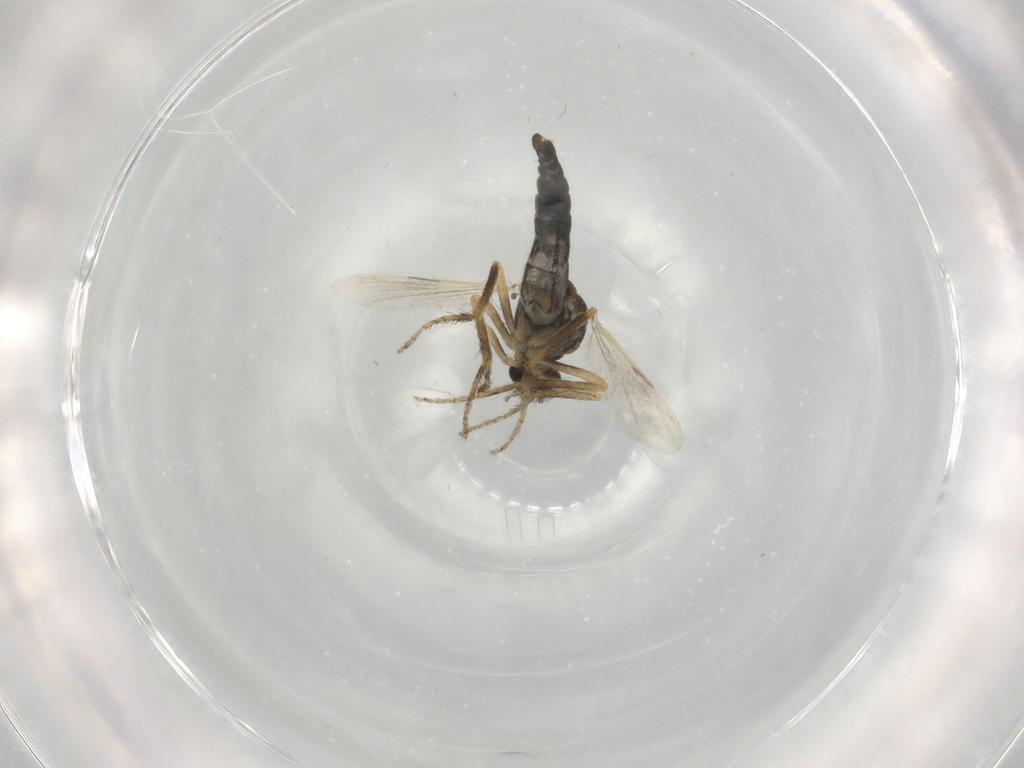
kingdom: Animalia
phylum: Arthropoda
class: Insecta
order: Diptera
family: Ceratopogonidae
